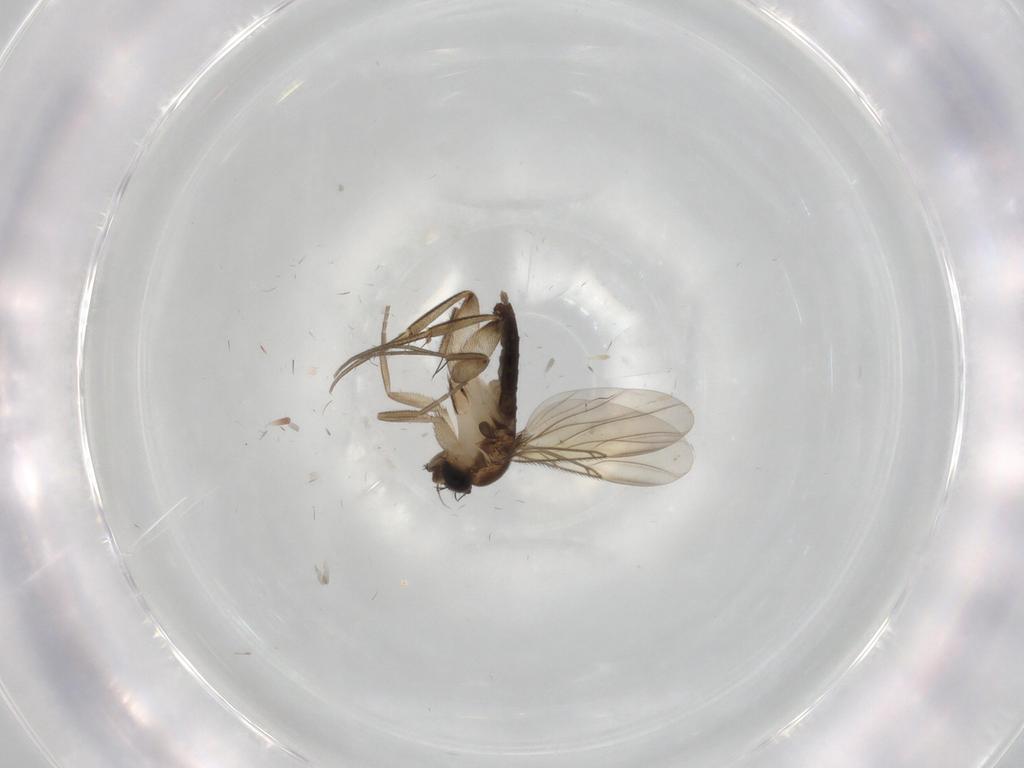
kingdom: Animalia
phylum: Arthropoda
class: Insecta
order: Diptera
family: Phoridae
